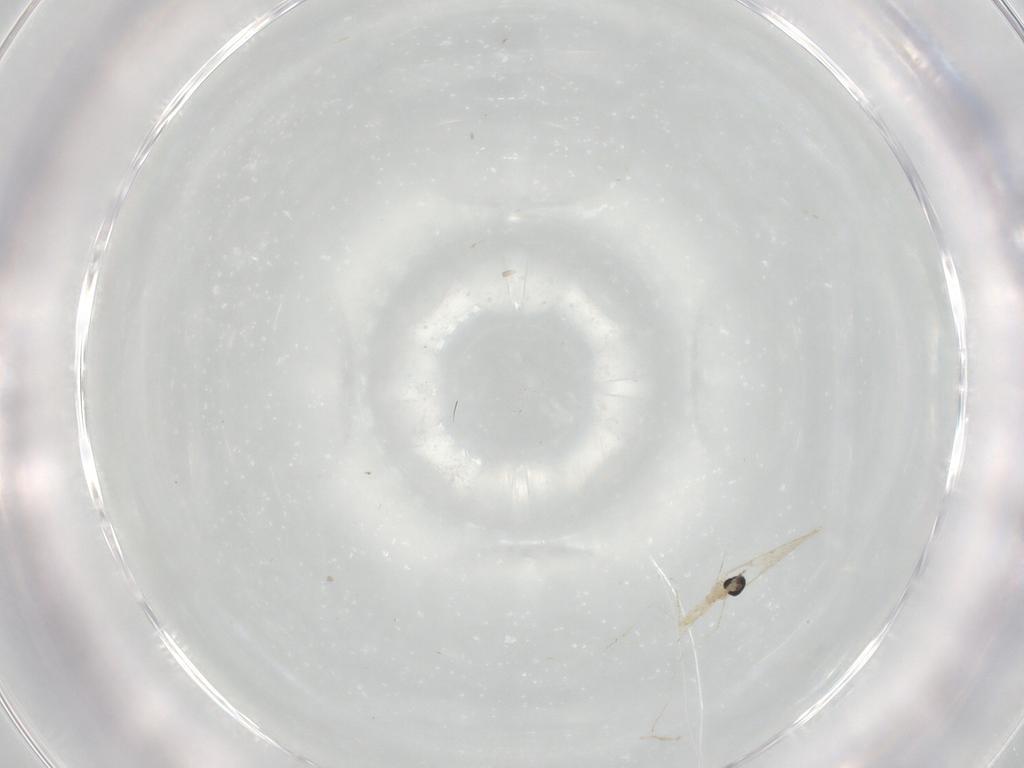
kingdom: Animalia
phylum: Arthropoda
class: Insecta
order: Diptera
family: Cecidomyiidae
